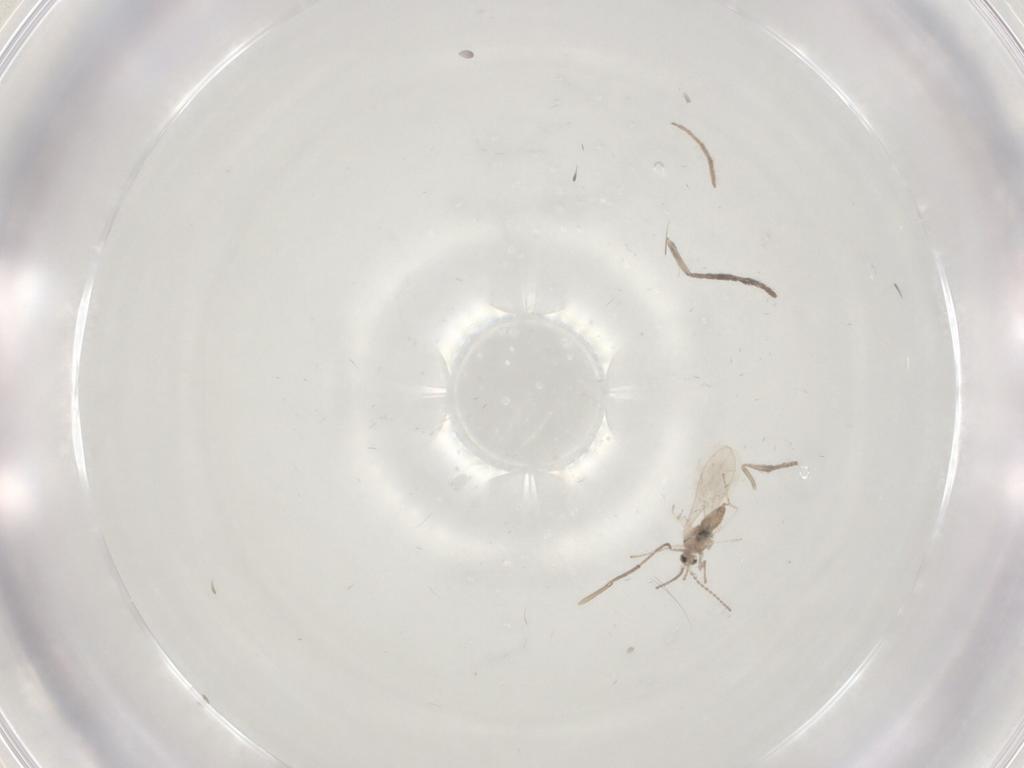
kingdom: Animalia
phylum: Arthropoda
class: Insecta
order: Diptera
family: Cecidomyiidae
